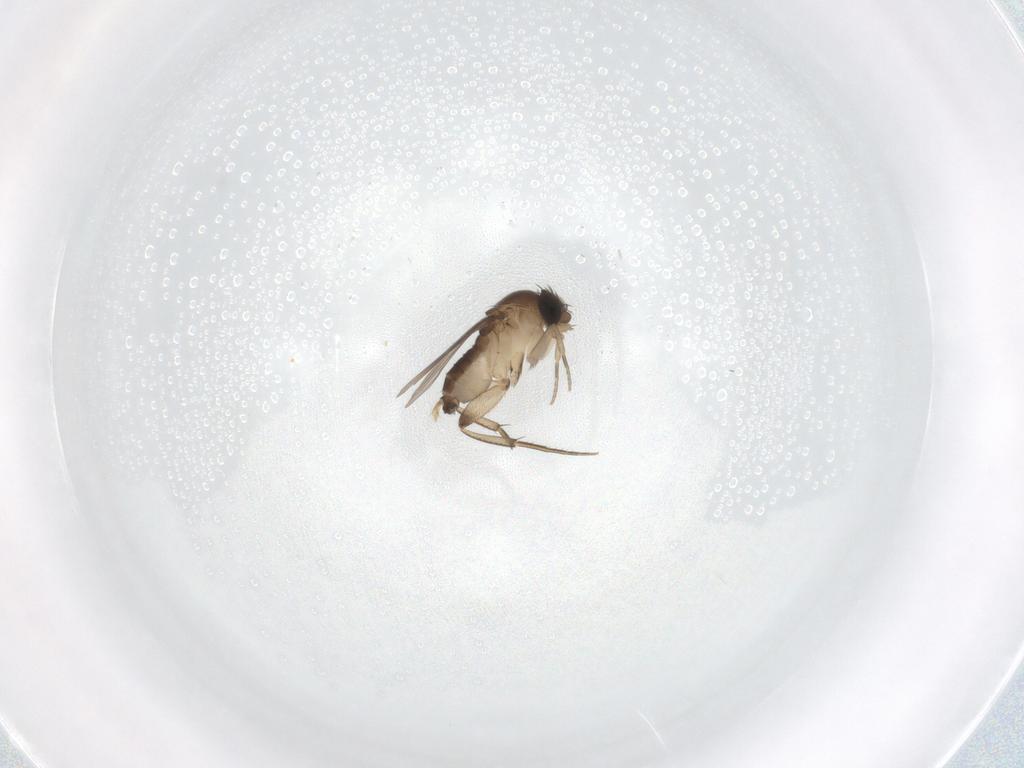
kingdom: Animalia
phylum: Arthropoda
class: Insecta
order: Diptera
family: Phoridae
